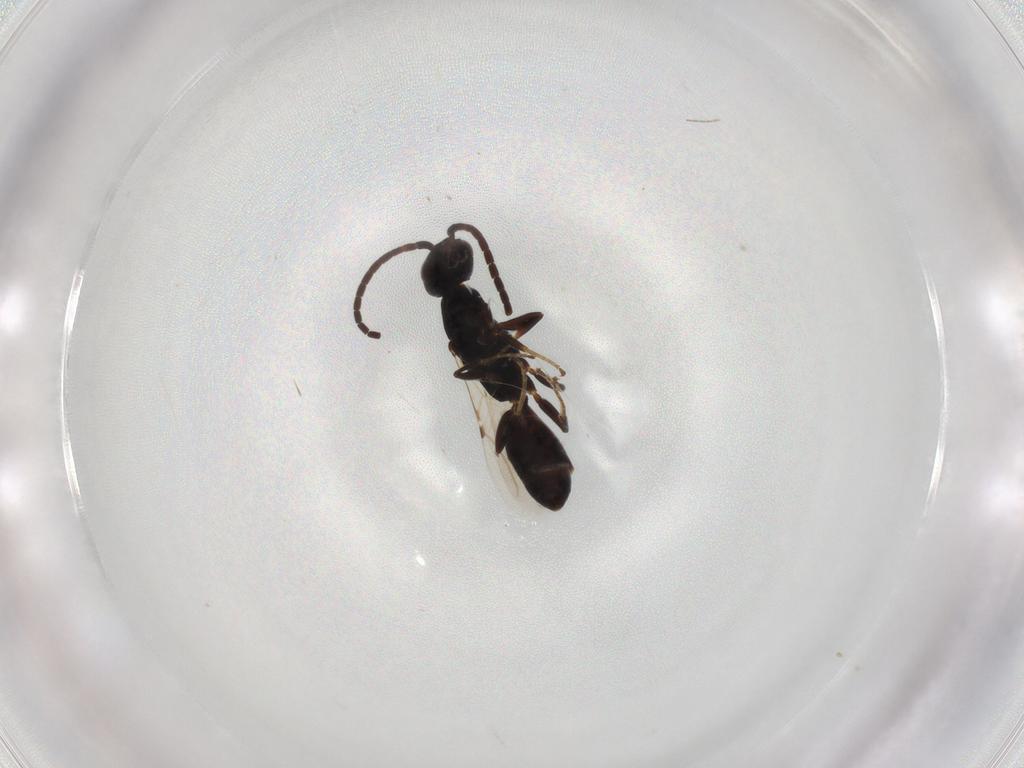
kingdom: Animalia
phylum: Arthropoda
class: Insecta
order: Hymenoptera
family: Bethylidae
